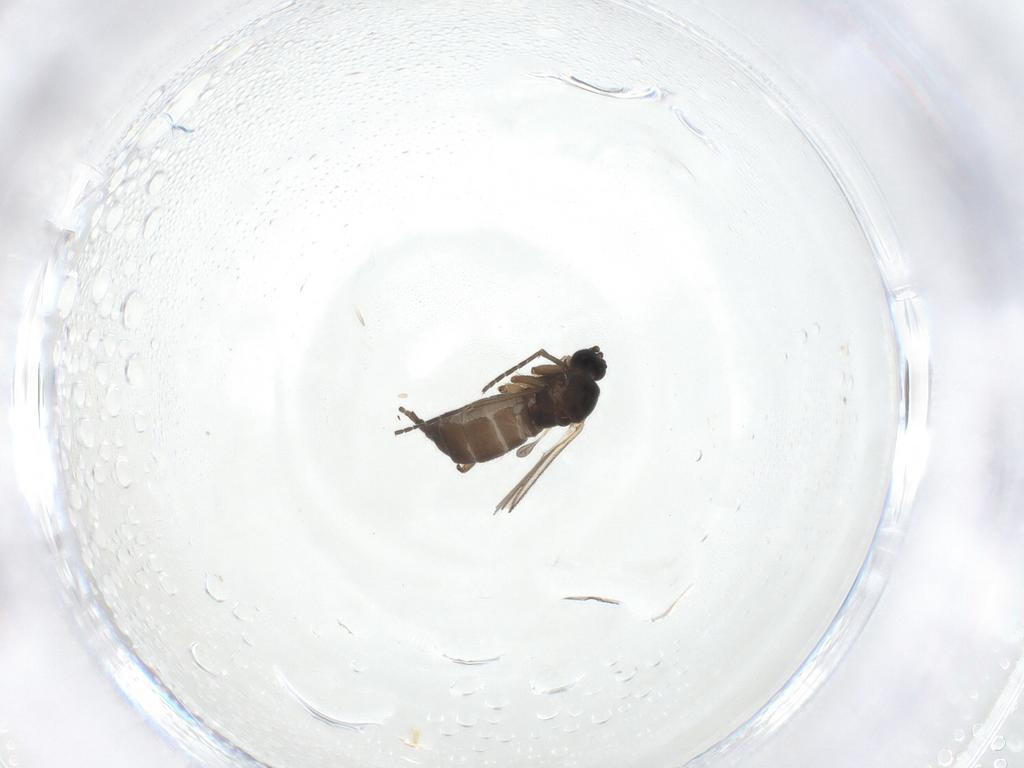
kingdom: Animalia
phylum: Arthropoda
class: Insecta
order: Diptera
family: Sciaridae
